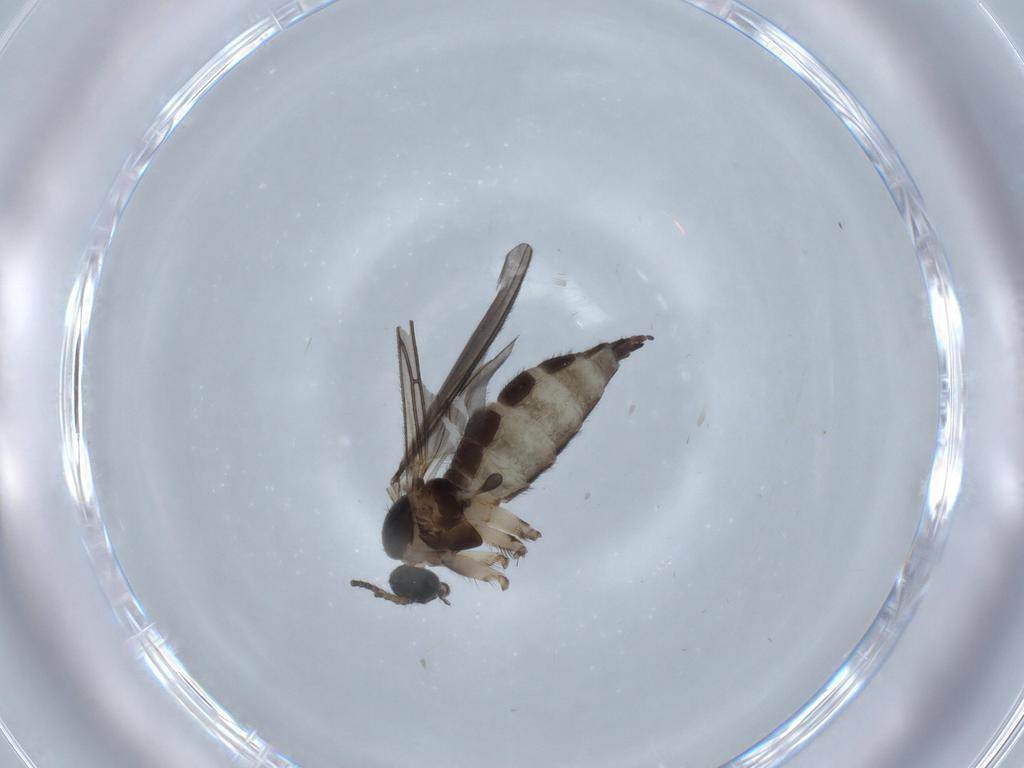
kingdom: Animalia
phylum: Arthropoda
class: Insecta
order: Diptera
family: Sciaridae
